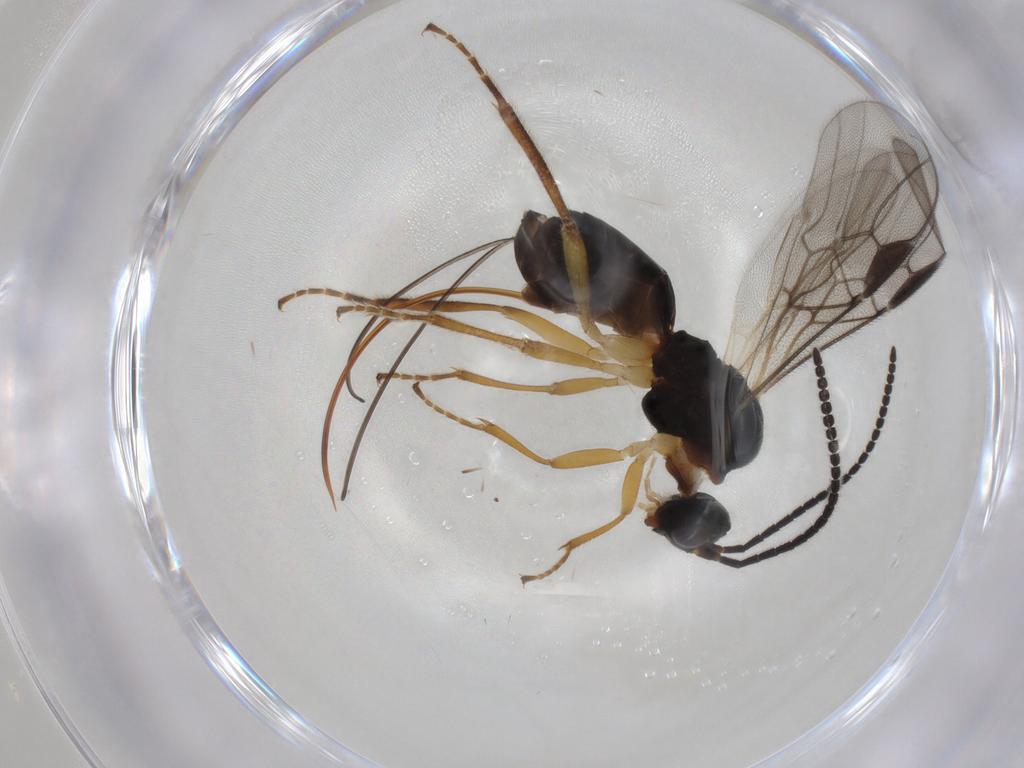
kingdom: Animalia
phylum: Arthropoda
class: Insecta
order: Hymenoptera
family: Braconidae
